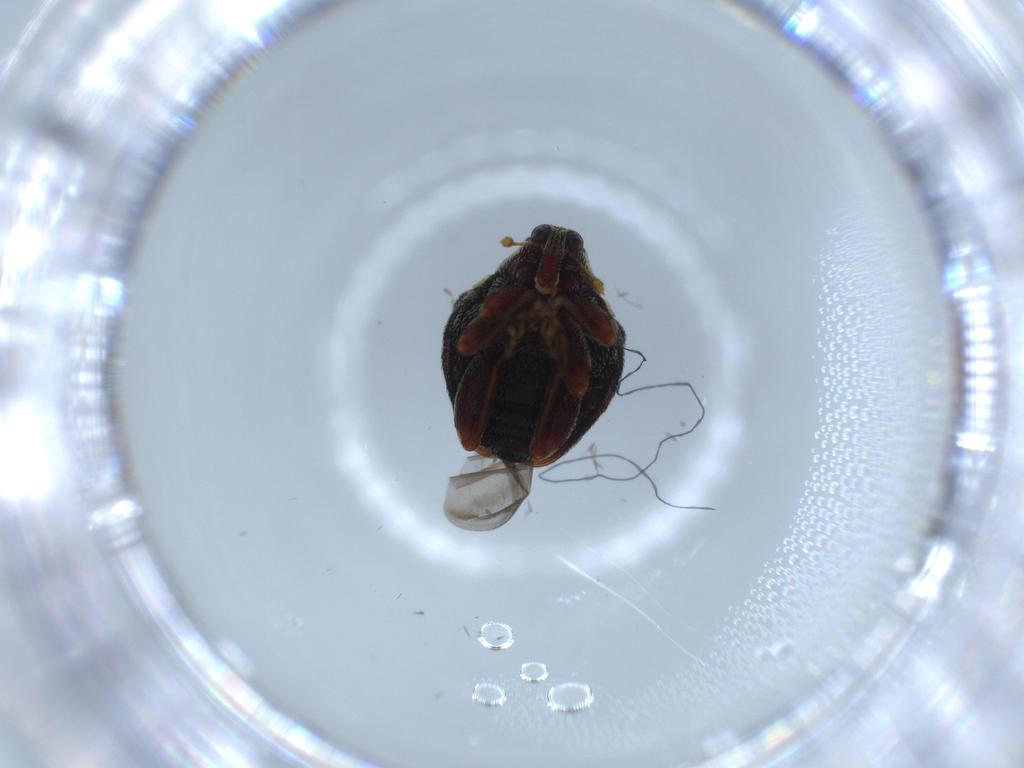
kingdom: Animalia
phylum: Arthropoda
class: Insecta
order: Coleoptera
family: Curculionidae
